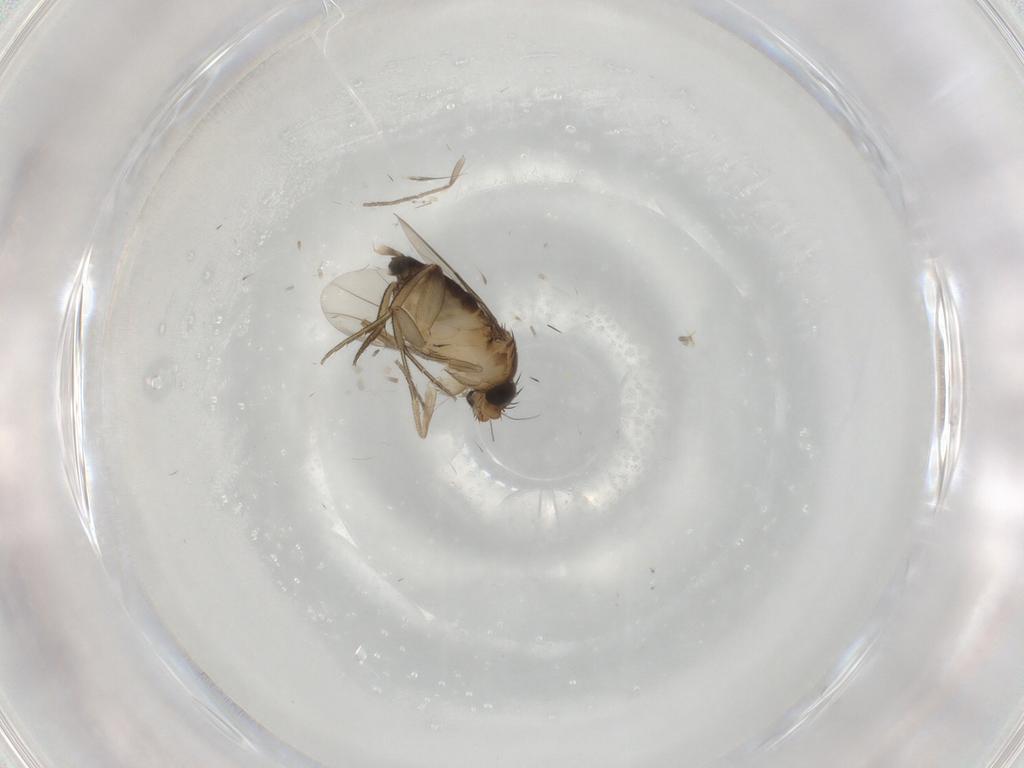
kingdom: Animalia
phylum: Arthropoda
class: Insecta
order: Diptera
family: Phoridae
